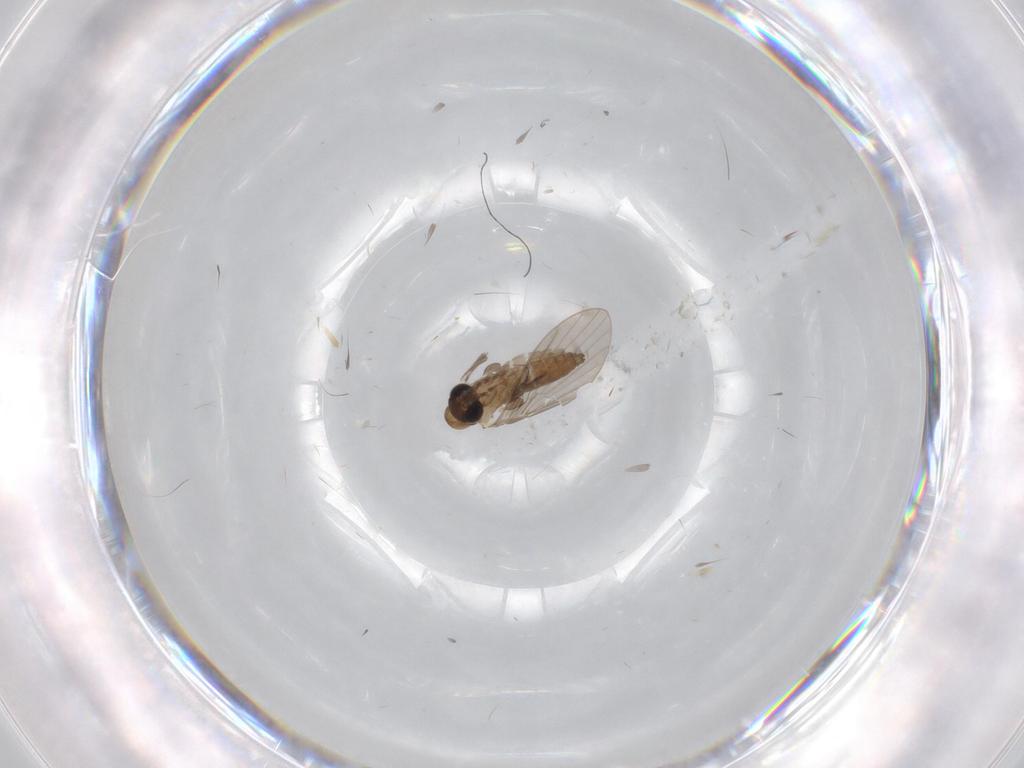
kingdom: Animalia
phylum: Arthropoda
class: Insecta
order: Diptera
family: Chironomidae
